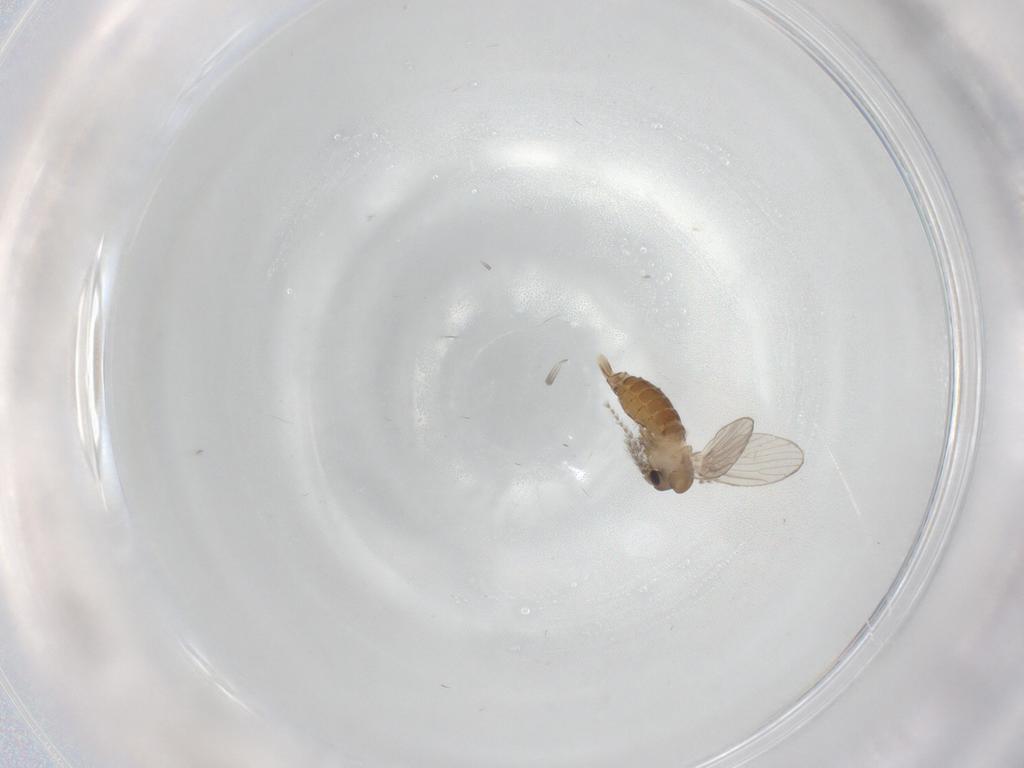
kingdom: Animalia
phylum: Arthropoda
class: Insecta
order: Diptera
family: Psychodidae
